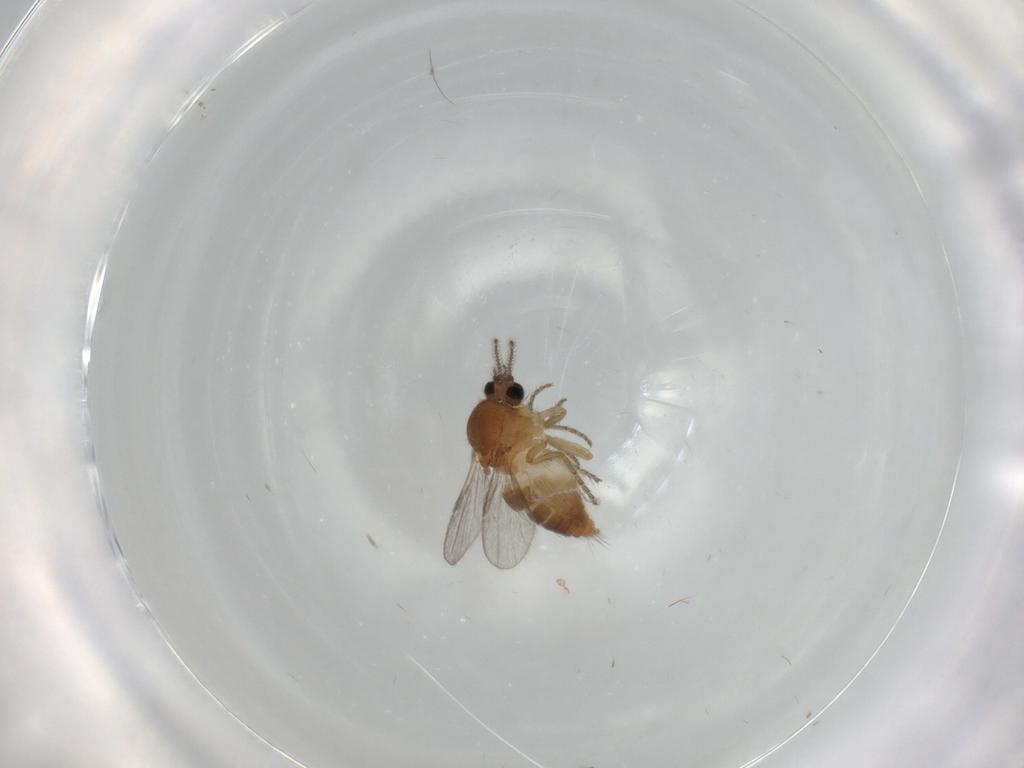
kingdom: Animalia
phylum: Arthropoda
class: Insecta
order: Diptera
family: Ceratopogonidae
